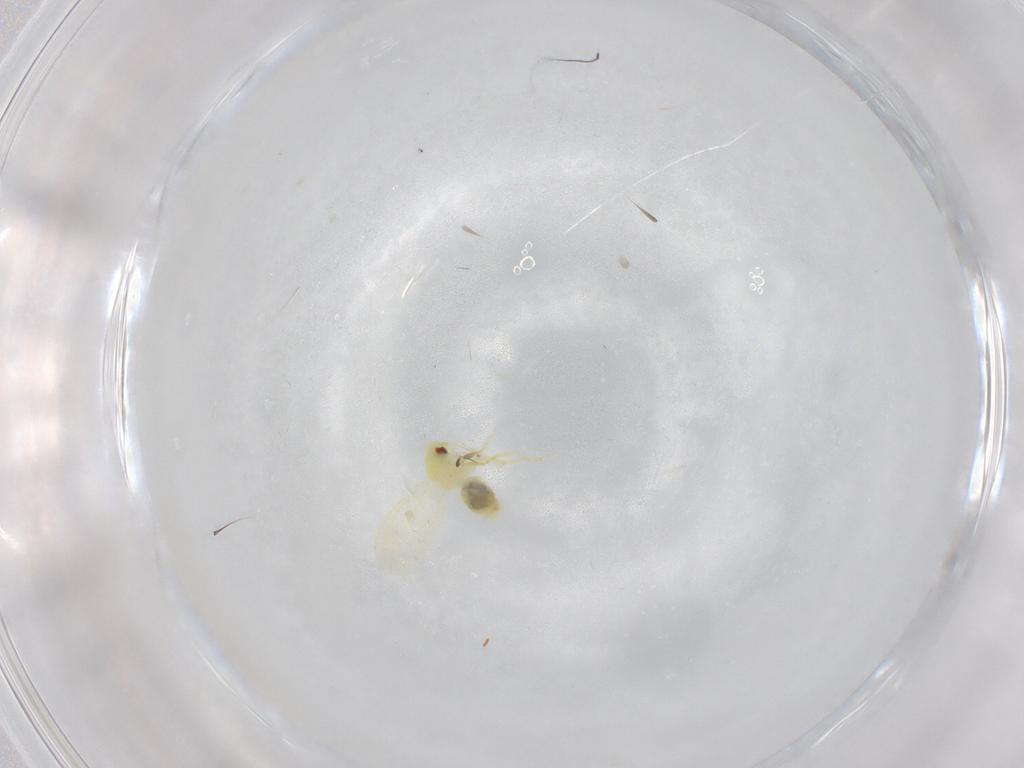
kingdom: Animalia
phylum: Arthropoda
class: Insecta
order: Hemiptera
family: Aleyrodidae
